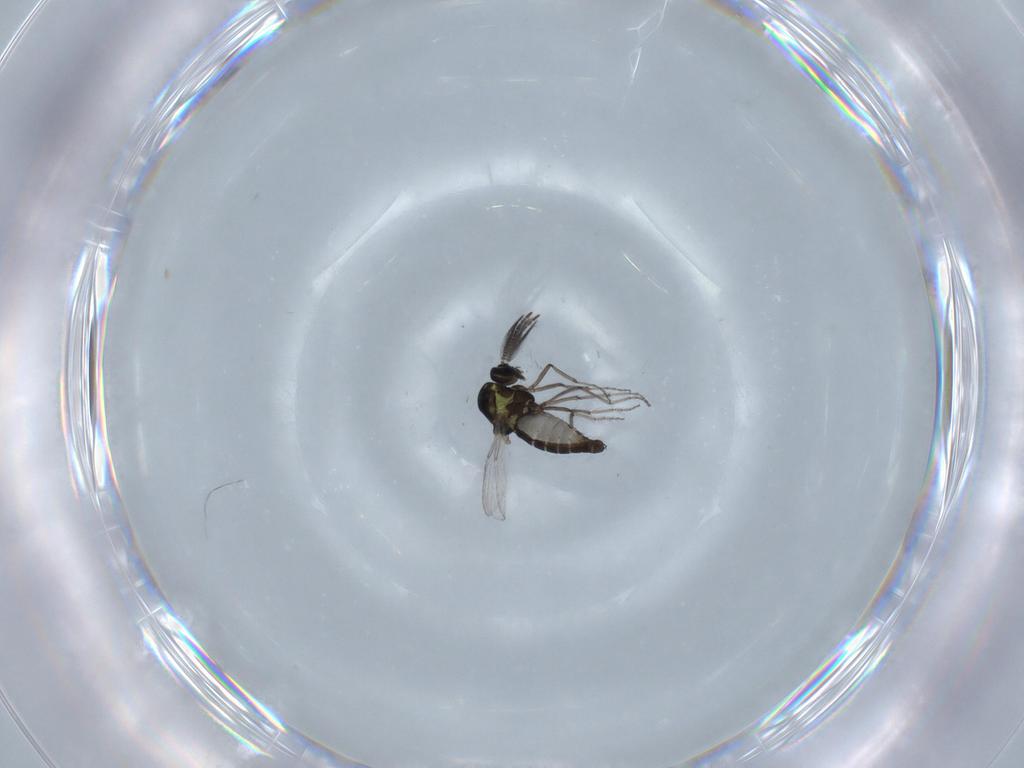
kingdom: Animalia
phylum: Arthropoda
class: Insecta
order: Diptera
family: Ceratopogonidae
